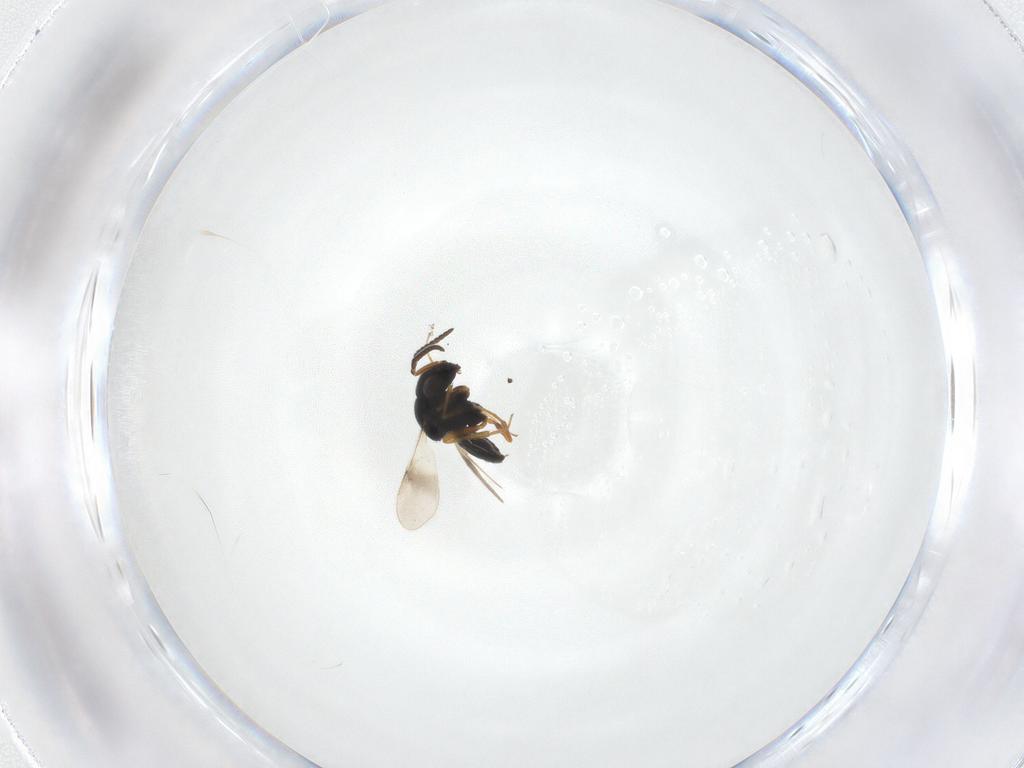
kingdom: Animalia
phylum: Arthropoda
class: Insecta
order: Hymenoptera
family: Scelionidae
